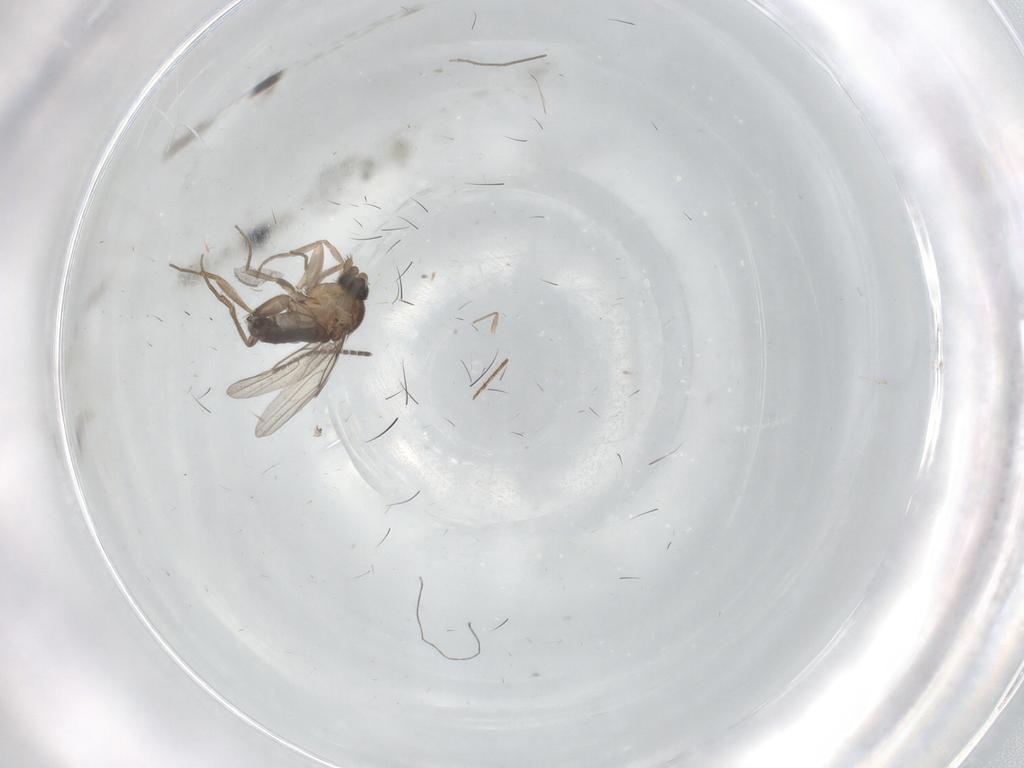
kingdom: Animalia
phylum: Arthropoda
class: Insecta
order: Diptera
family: Phoridae
